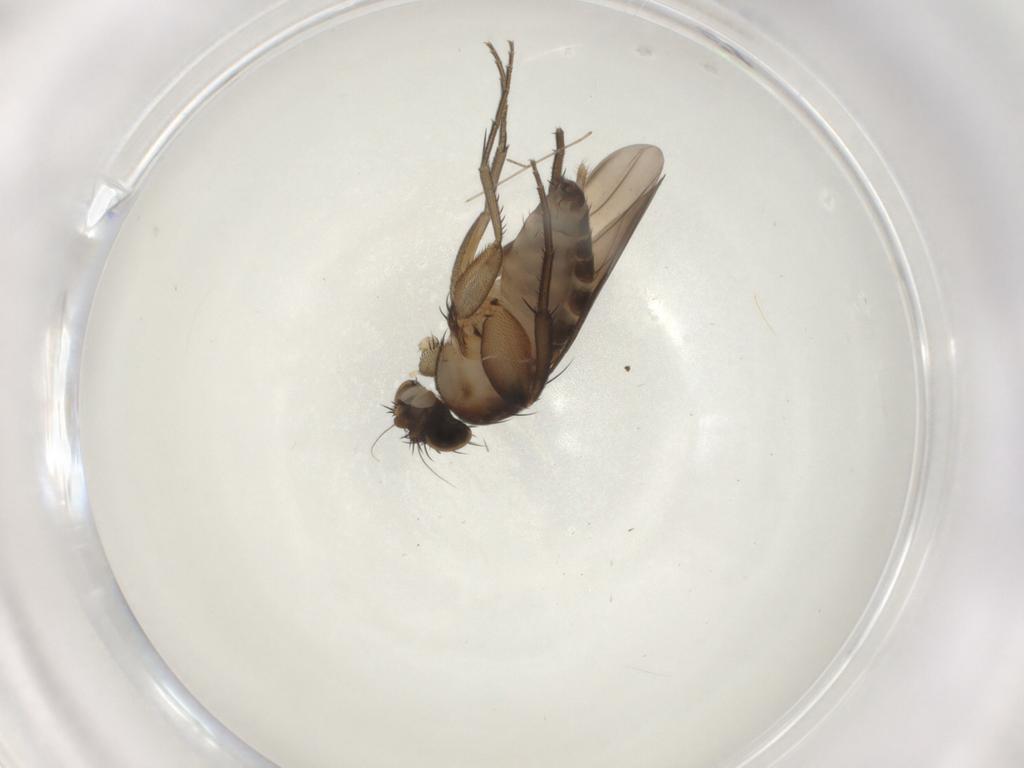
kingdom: Animalia
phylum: Arthropoda
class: Insecta
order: Diptera
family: Phoridae
